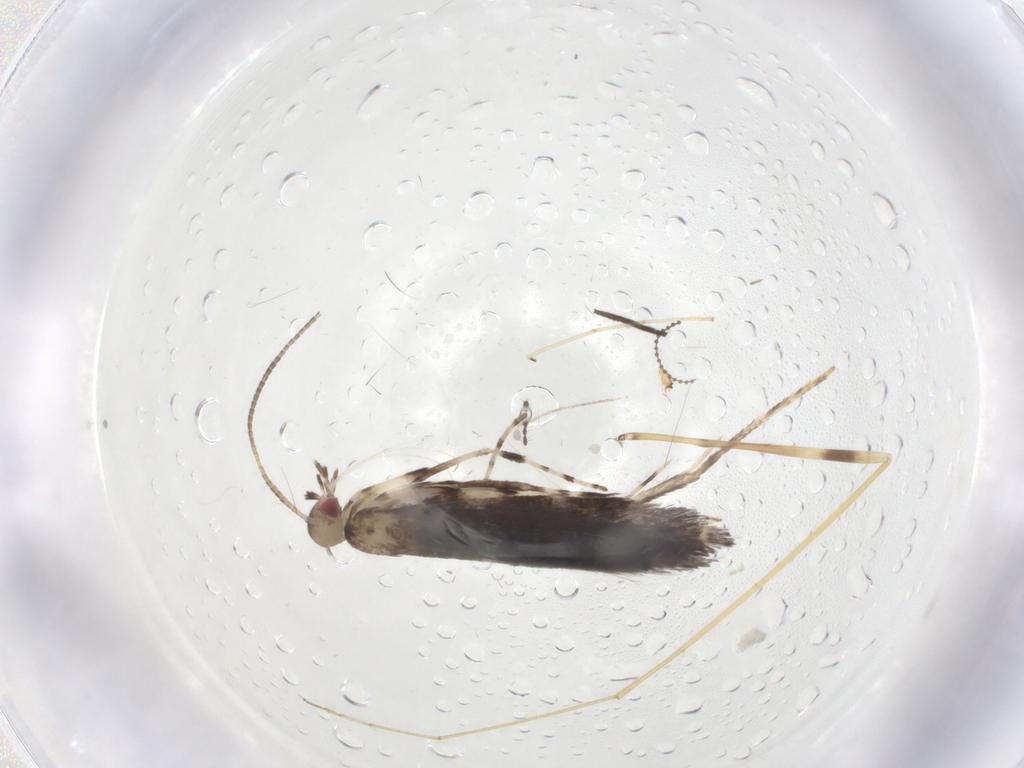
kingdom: Animalia
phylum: Arthropoda
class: Insecta
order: Lepidoptera
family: Gracillariidae
